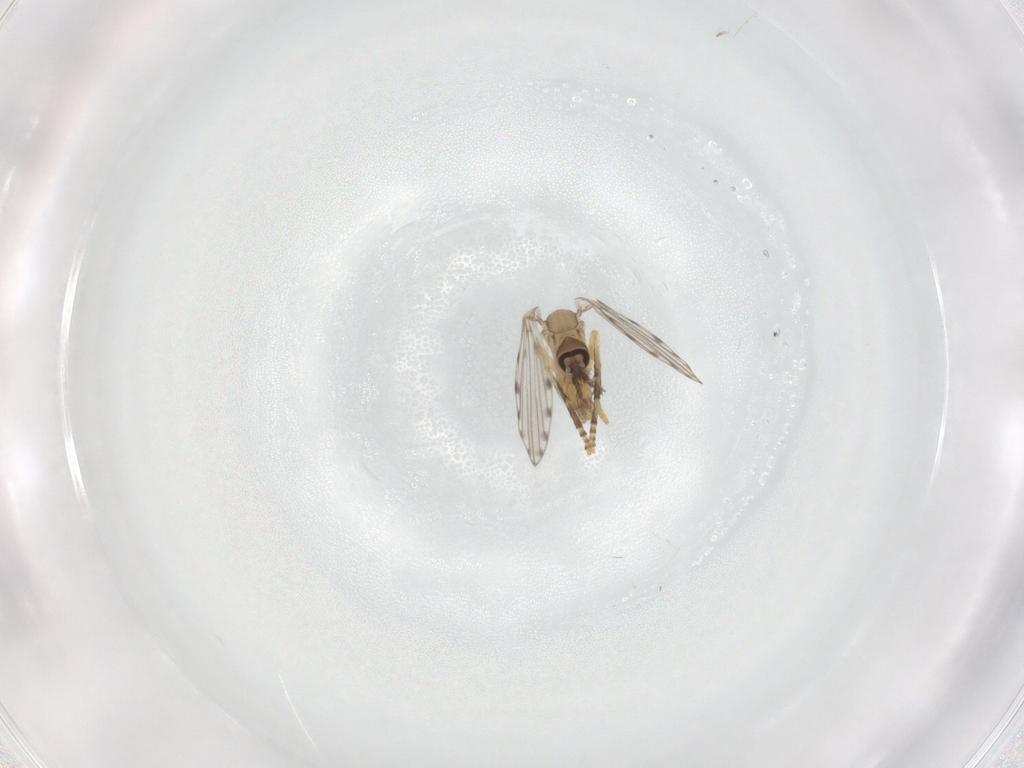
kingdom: Animalia
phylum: Arthropoda
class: Insecta
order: Diptera
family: Cecidomyiidae
